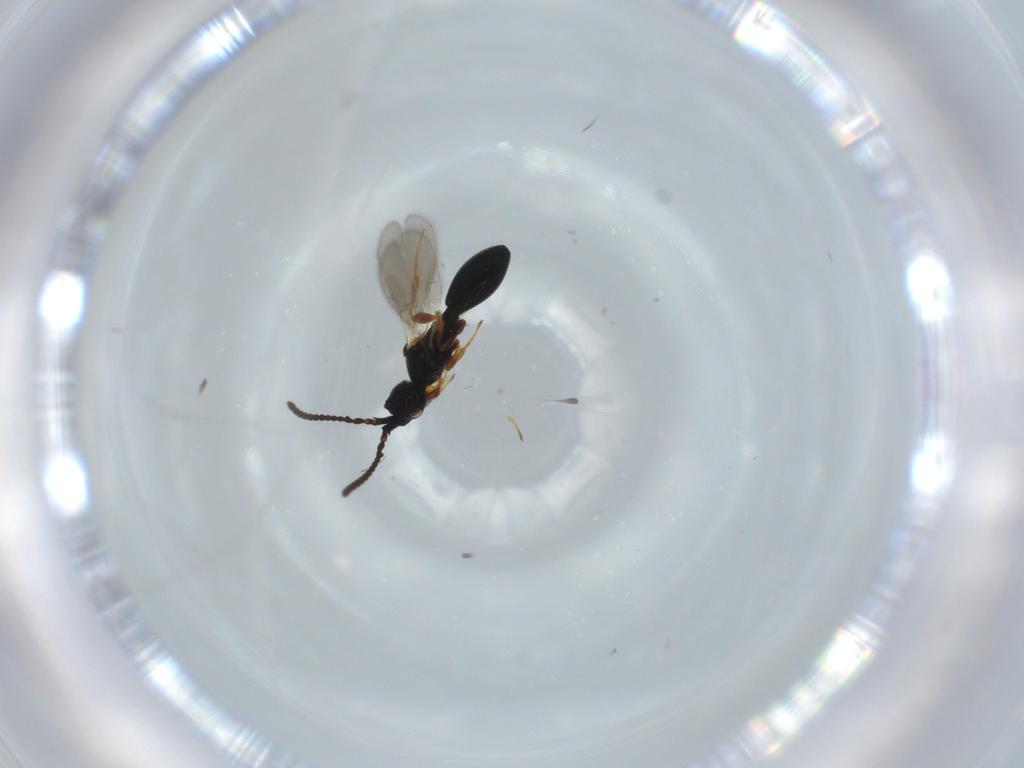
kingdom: Animalia
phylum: Arthropoda
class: Insecta
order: Hymenoptera
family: Diapriidae
